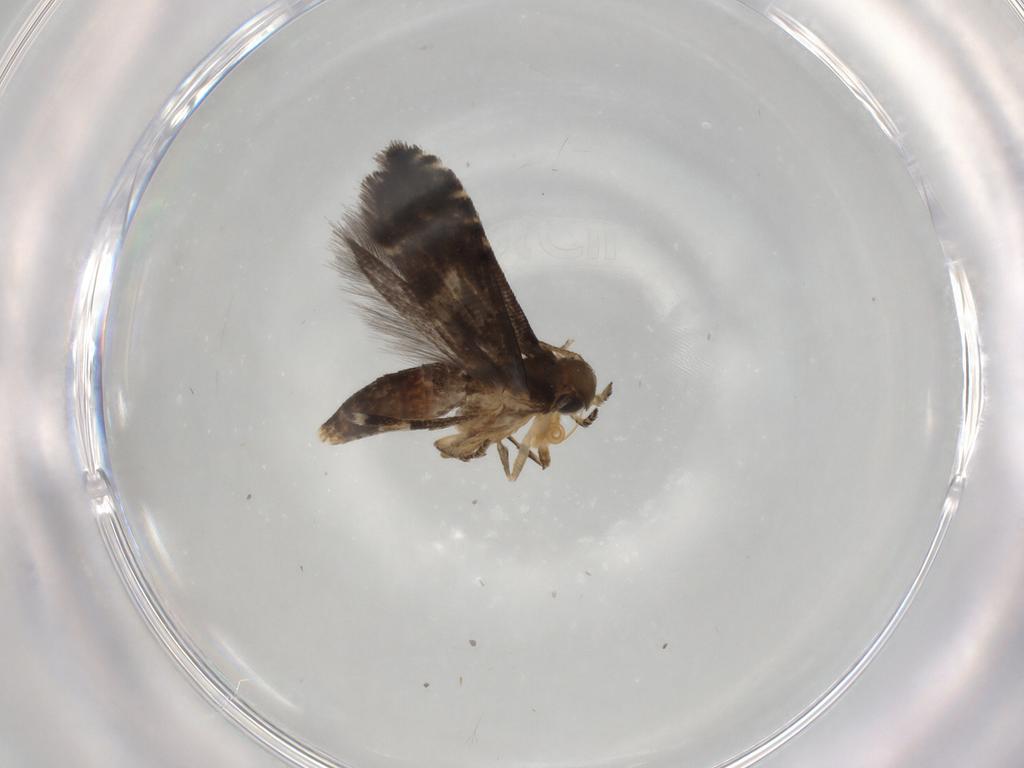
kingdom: Animalia
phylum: Arthropoda
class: Insecta
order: Lepidoptera
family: Glyphipterigidae
